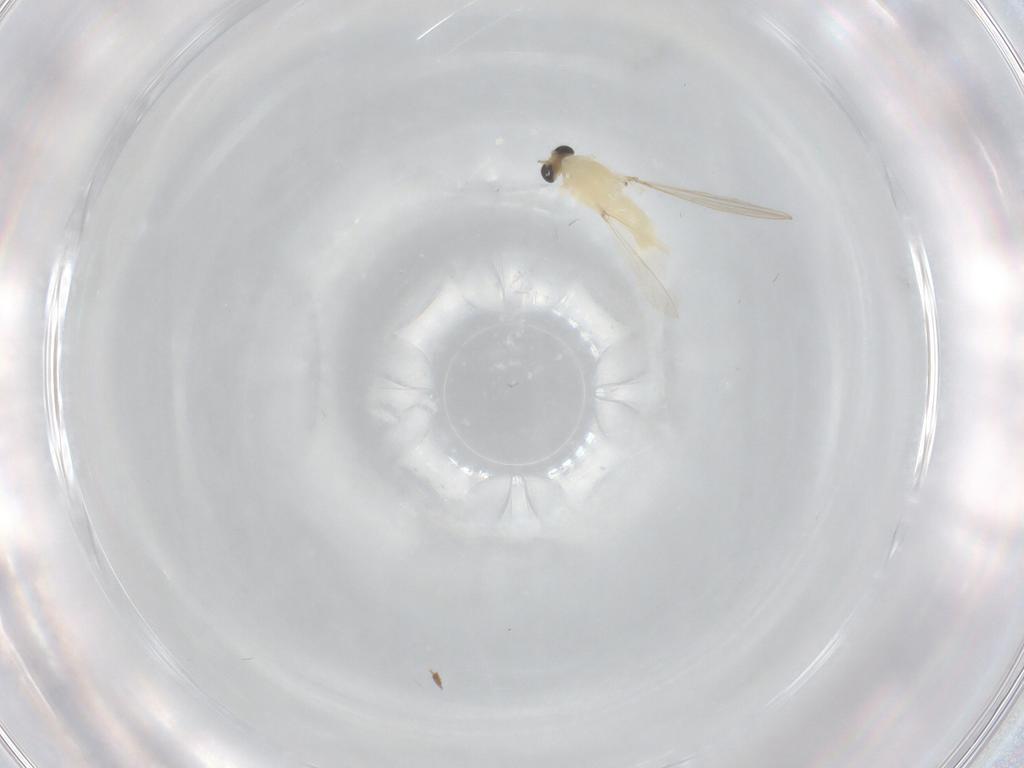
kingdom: Animalia
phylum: Arthropoda
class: Insecta
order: Diptera
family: Chironomidae
